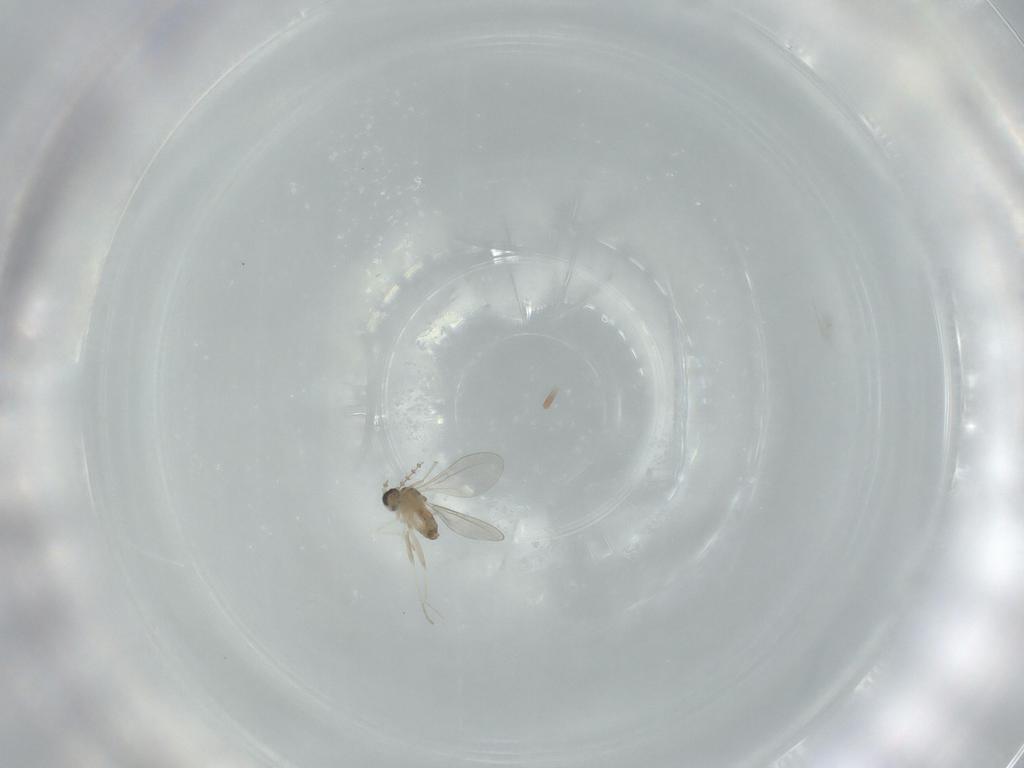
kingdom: Animalia
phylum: Arthropoda
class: Insecta
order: Diptera
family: Cecidomyiidae
